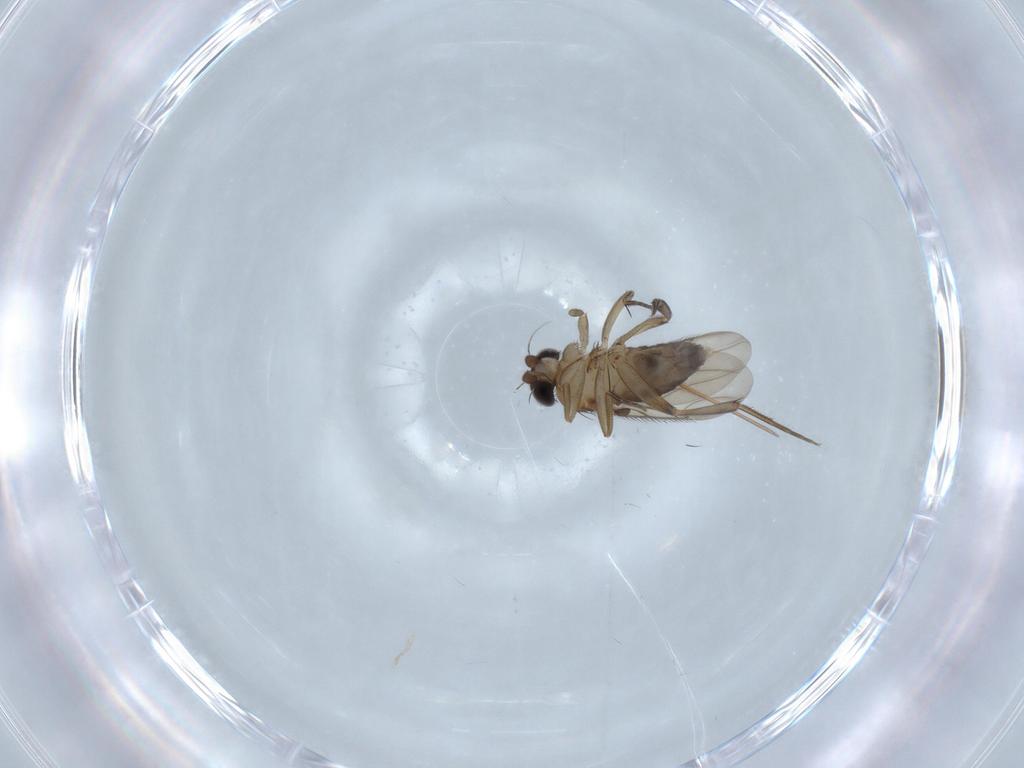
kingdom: Animalia
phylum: Arthropoda
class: Insecta
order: Diptera
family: Phoridae
